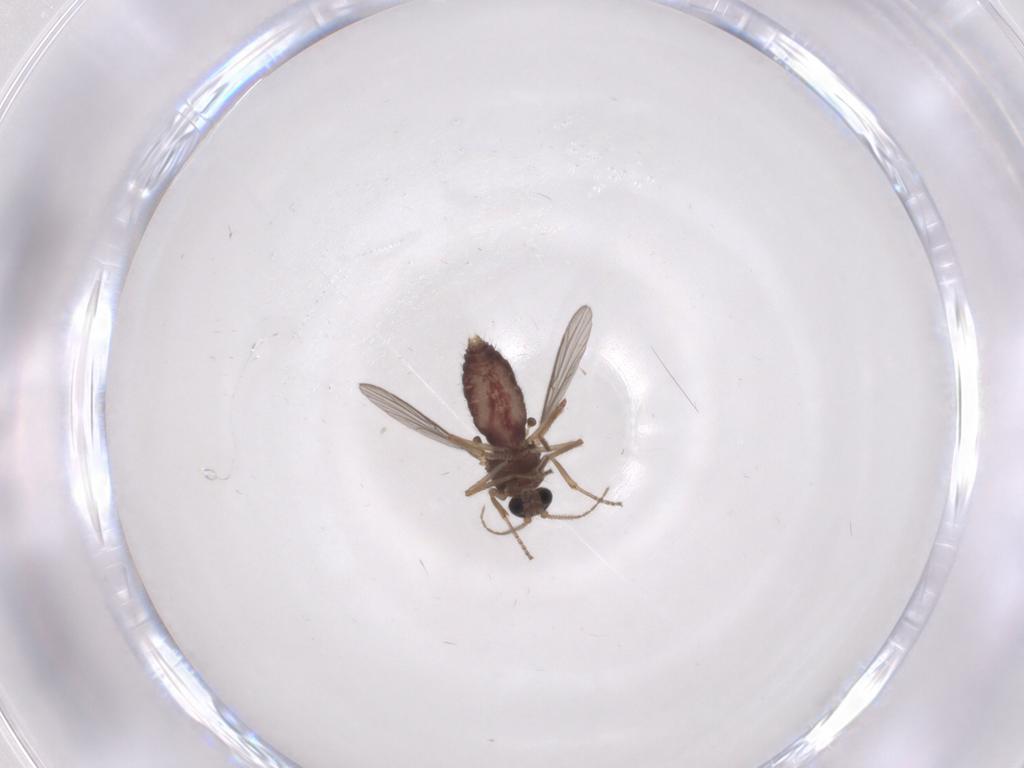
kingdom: Animalia
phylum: Arthropoda
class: Insecta
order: Diptera
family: Ceratopogonidae
